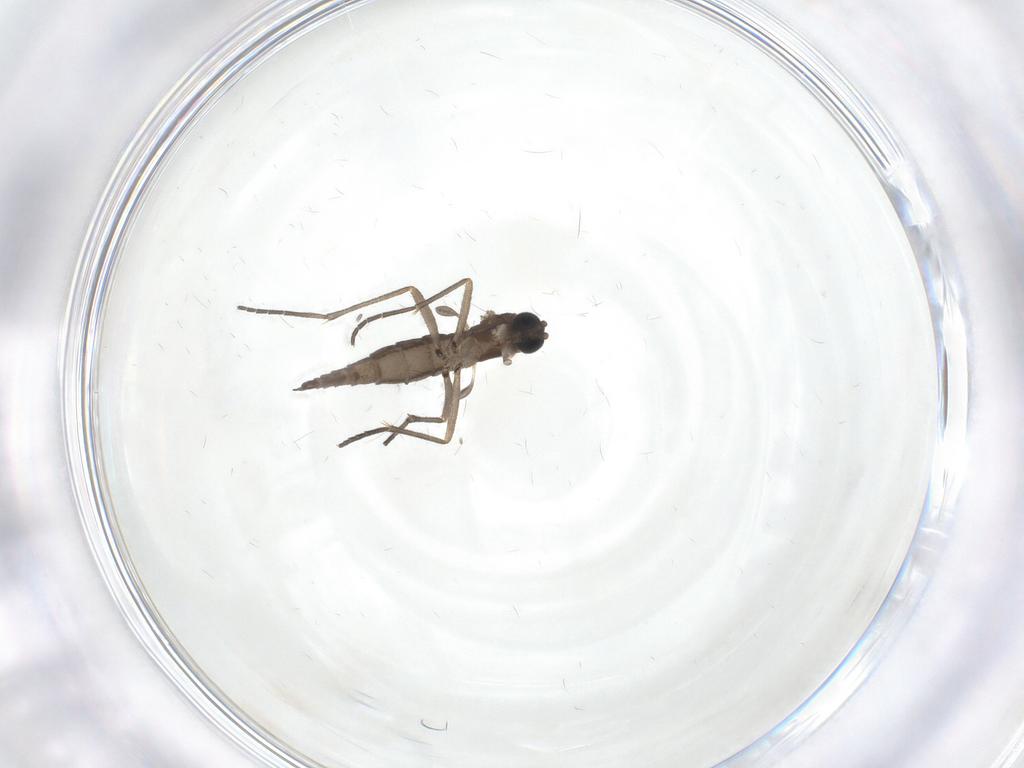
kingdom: Animalia
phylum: Arthropoda
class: Insecta
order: Diptera
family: Sciaridae
